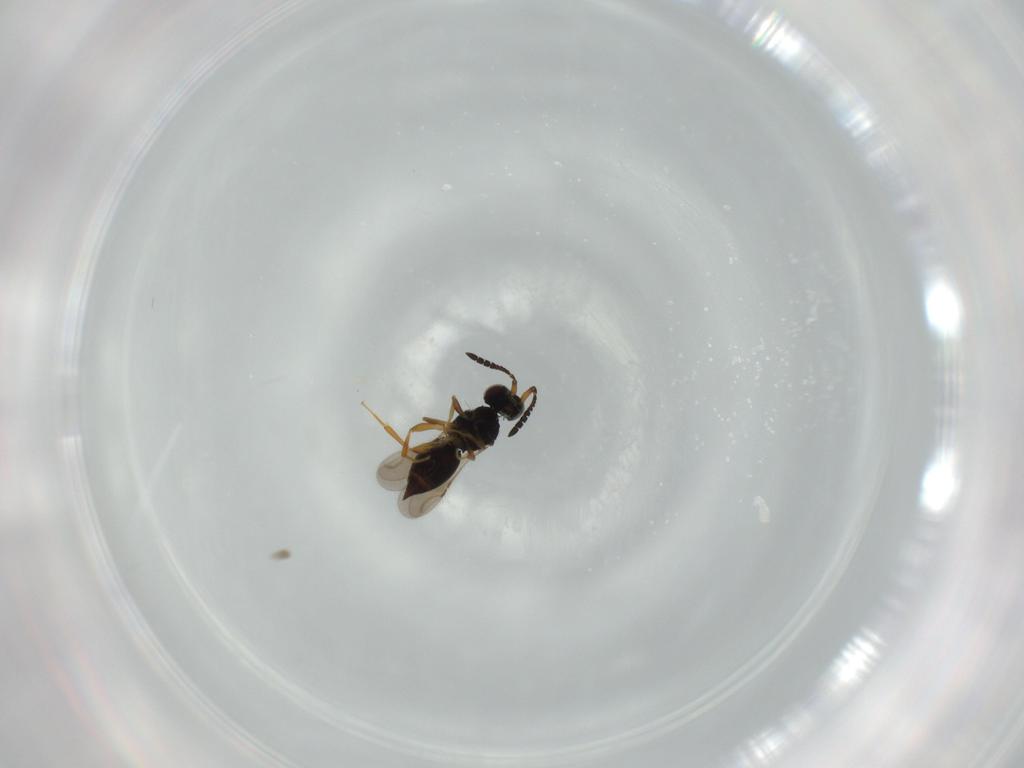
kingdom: Animalia
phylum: Arthropoda
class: Insecta
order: Hymenoptera
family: Ceraphronidae
